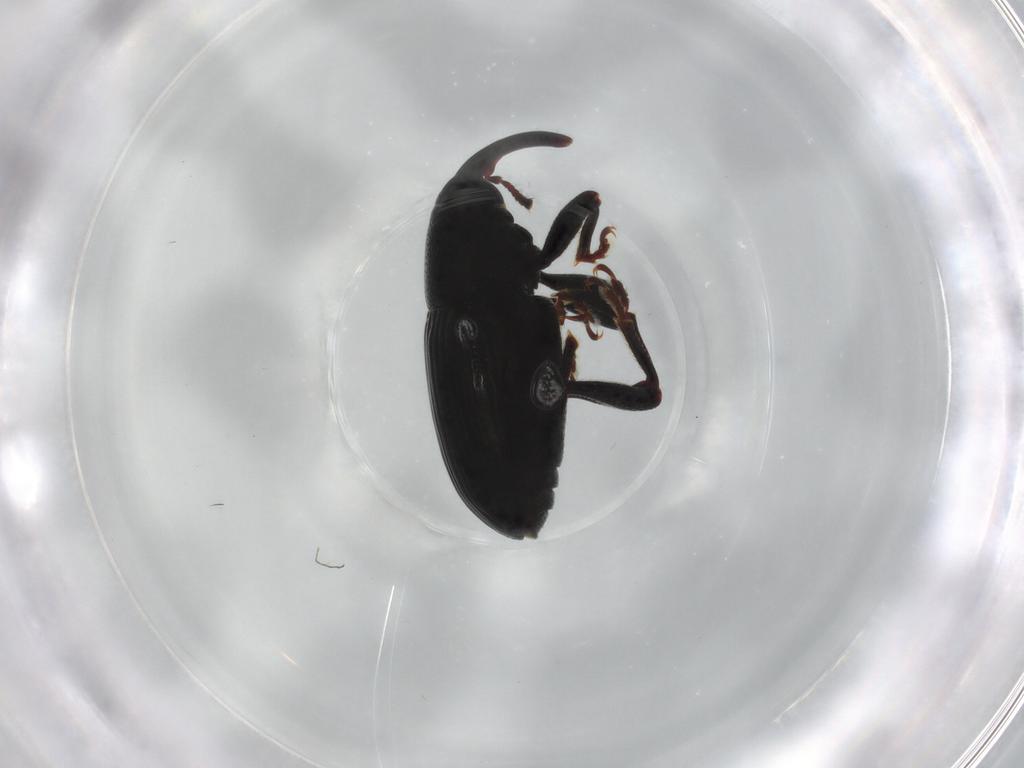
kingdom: Animalia
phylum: Arthropoda
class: Insecta
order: Coleoptera
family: Curculionidae
